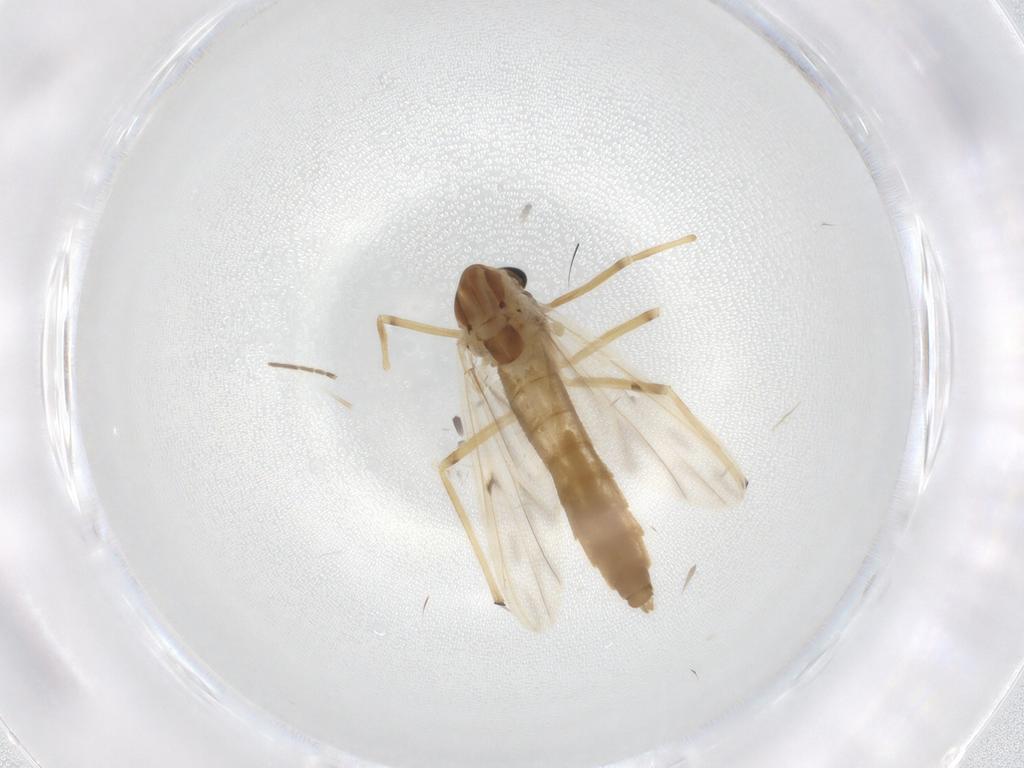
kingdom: Animalia
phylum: Arthropoda
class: Insecta
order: Diptera
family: Chironomidae
